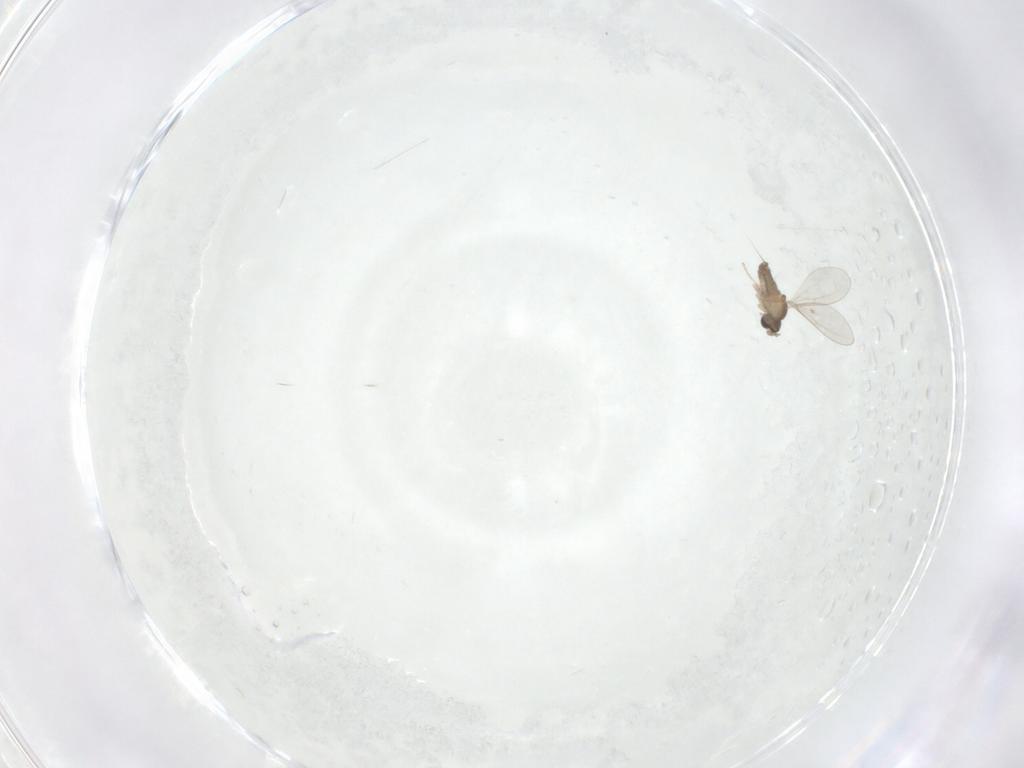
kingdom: Animalia
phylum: Arthropoda
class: Insecta
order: Diptera
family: Cecidomyiidae
